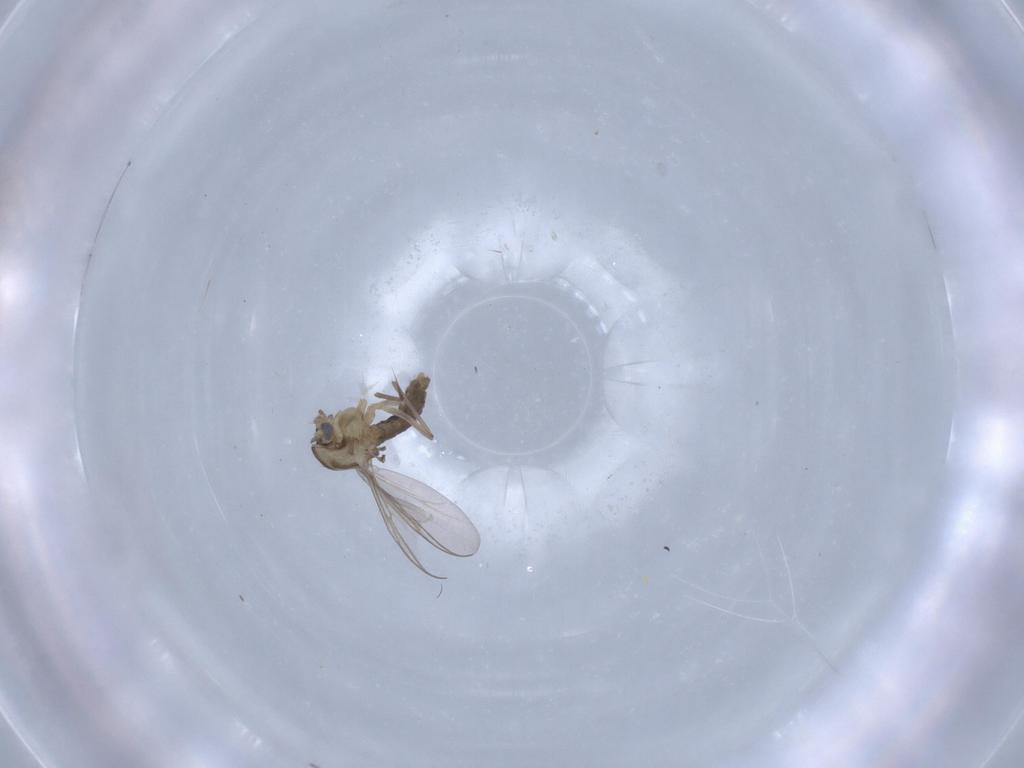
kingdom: Animalia
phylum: Arthropoda
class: Insecta
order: Diptera
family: Chironomidae
